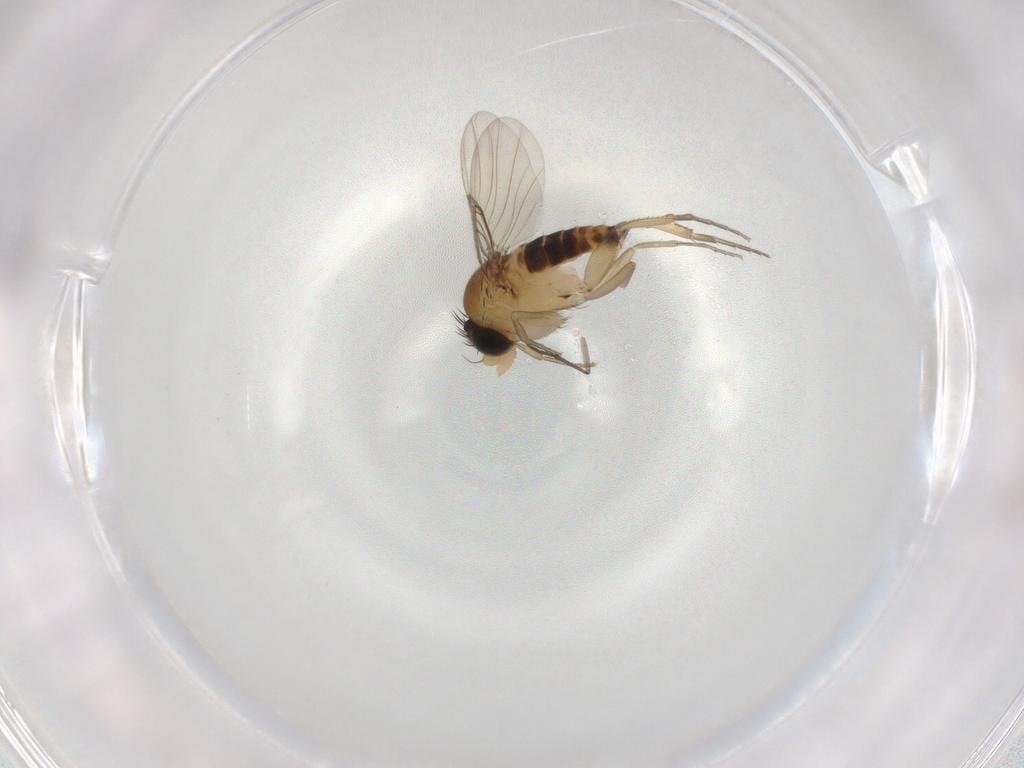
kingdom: Animalia
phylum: Arthropoda
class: Insecta
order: Diptera
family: Phoridae
